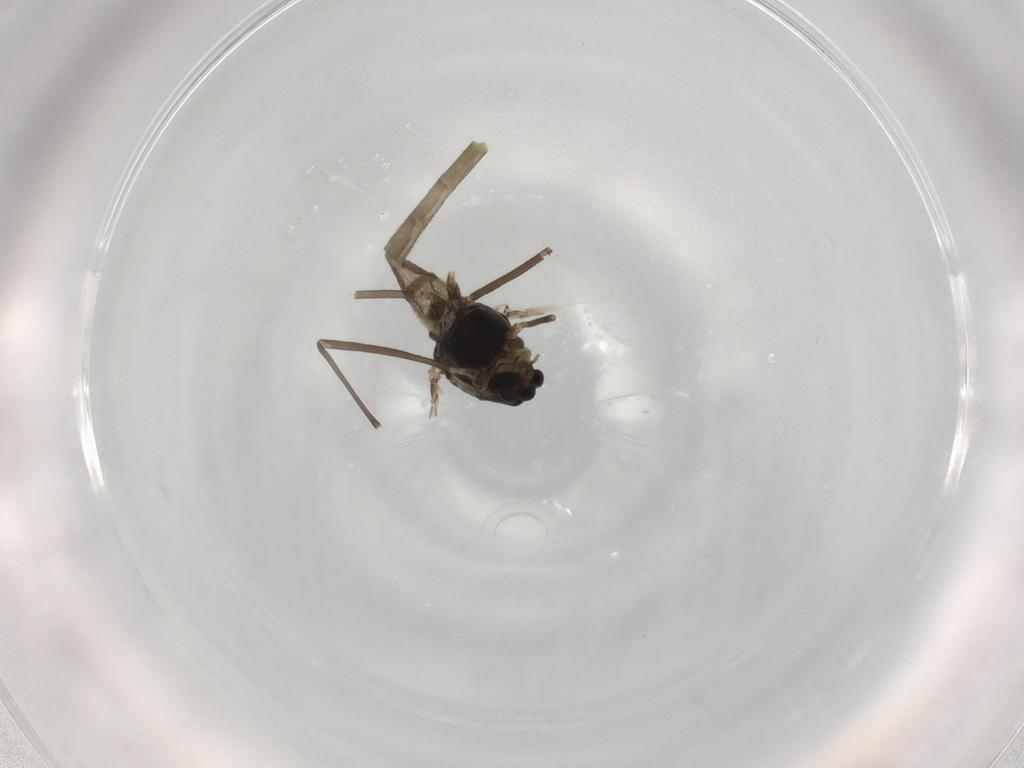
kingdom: Animalia
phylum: Arthropoda
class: Insecta
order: Diptera
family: Chironomidae
